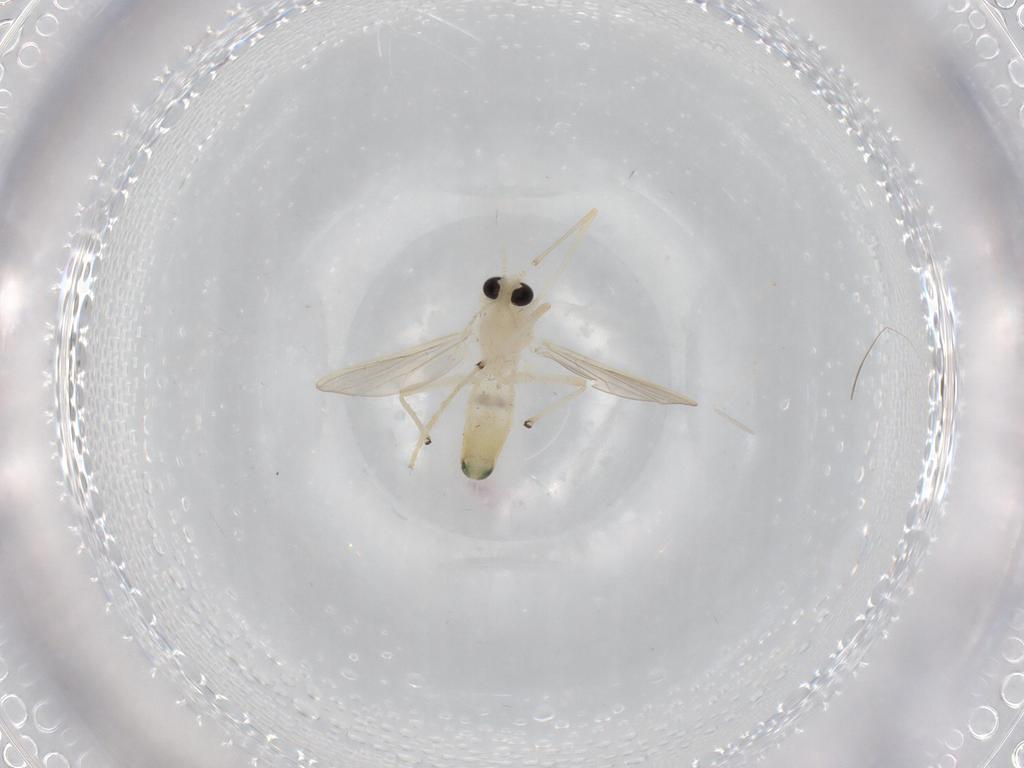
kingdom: Animalia
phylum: Arthropoda
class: Insecta
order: Diptera
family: Chironomidae
